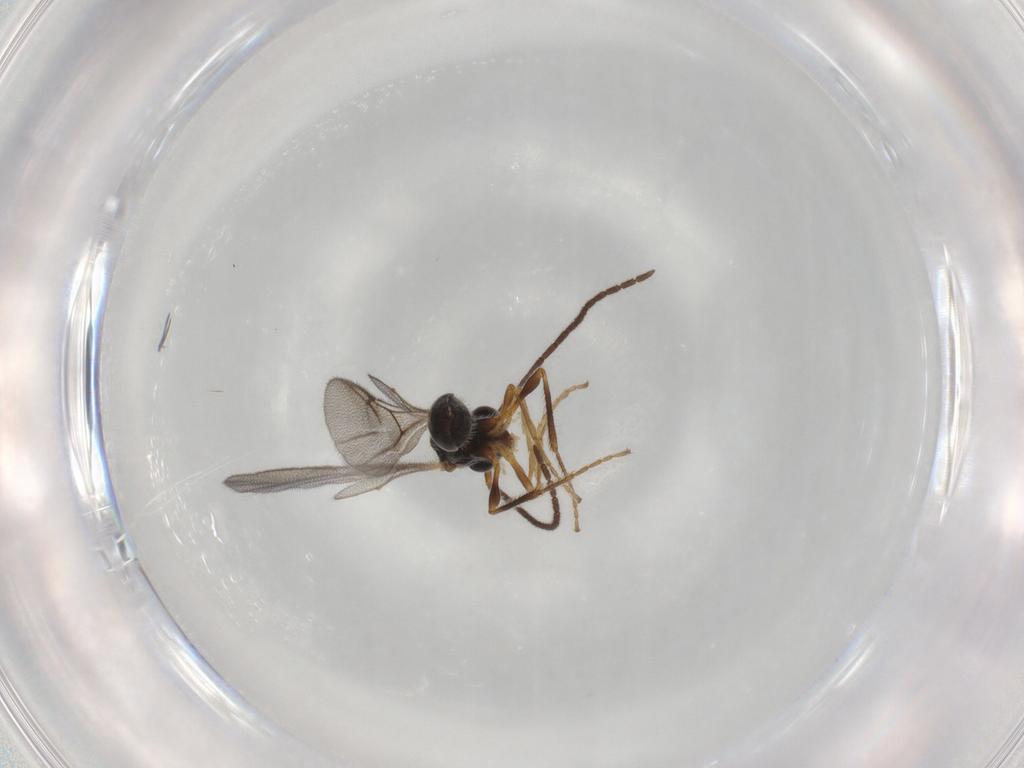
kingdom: Animalia
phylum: Arthropoda
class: Insecta
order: Hymenoptera
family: Diapriidae
